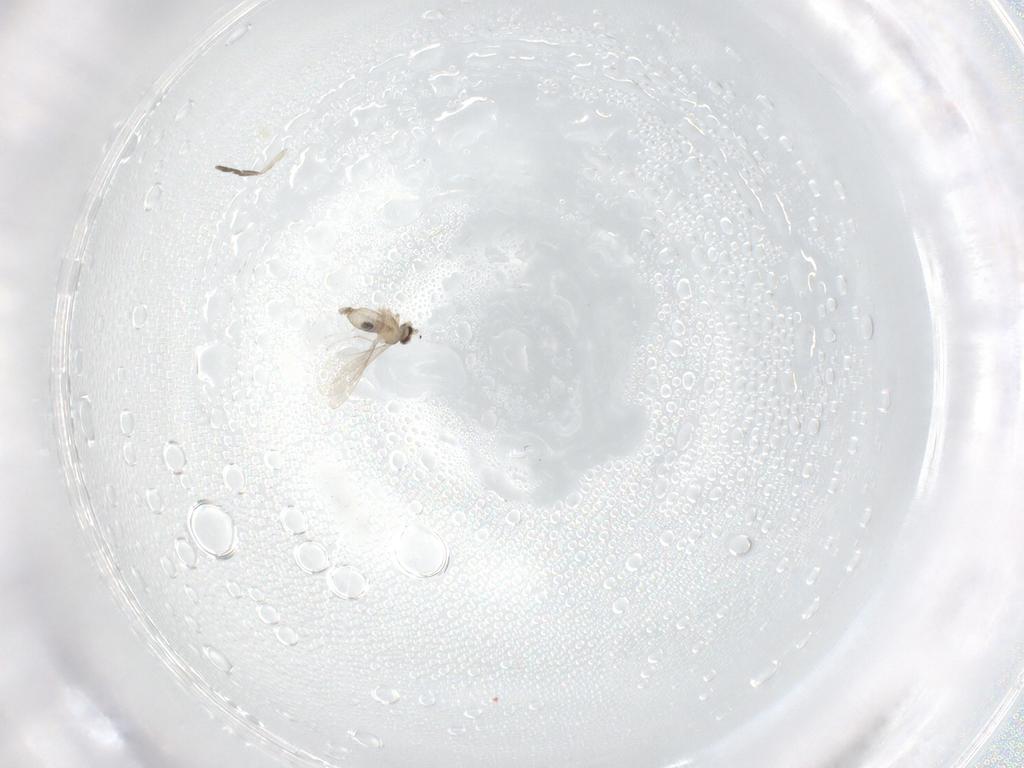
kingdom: Animalia
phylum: Arthropoda
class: Insecta
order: Diptera
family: Cecidomyiidae
